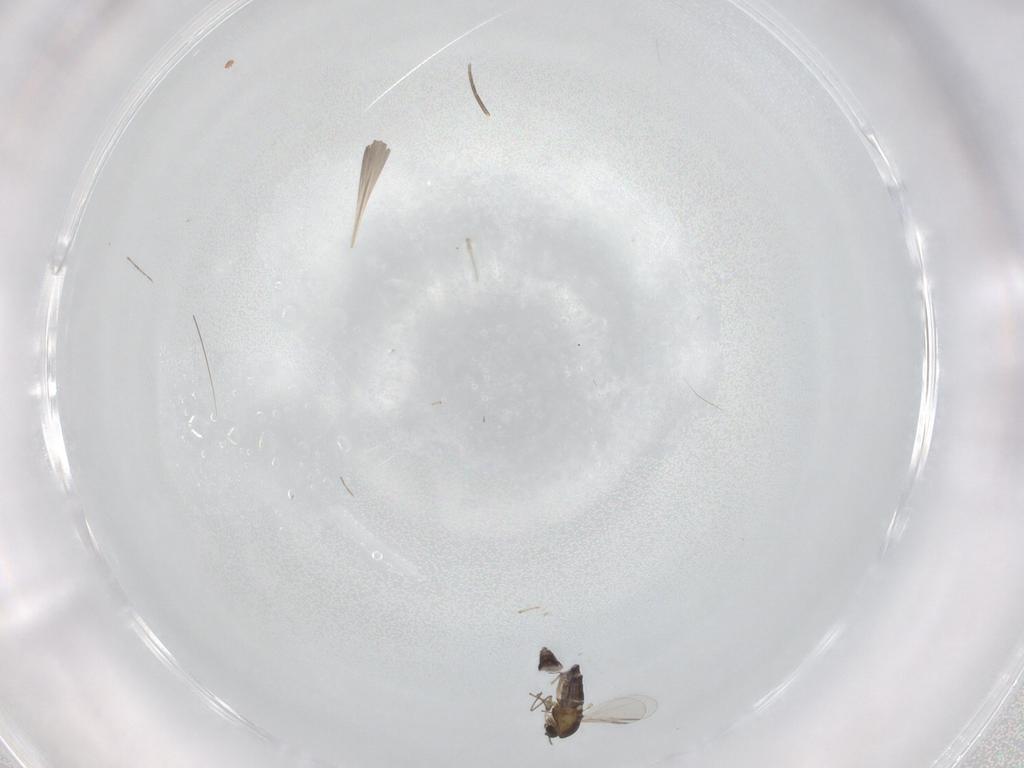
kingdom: Animalia
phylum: Arthropoda
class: Insecta
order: Diptera
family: Chironomidae
